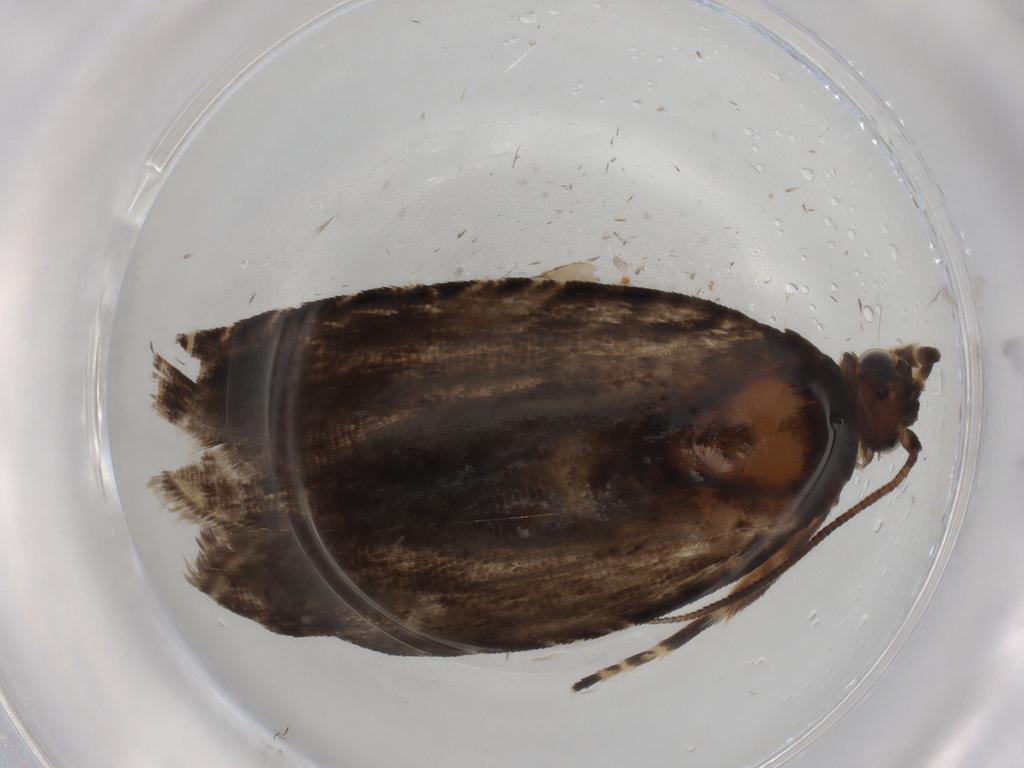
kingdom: Animalia
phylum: Arthropoda
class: Insecta
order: Lepidoptera
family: Tortricidae
